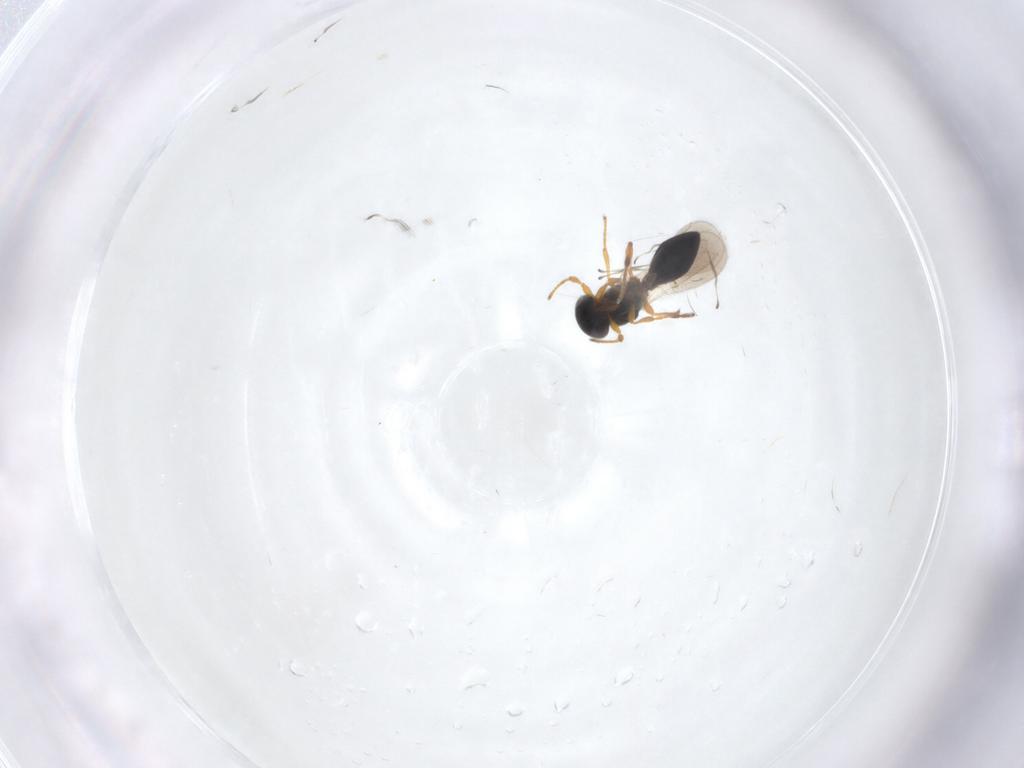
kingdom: Animalia
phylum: Arthropoda
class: Insecta
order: Hymenoptera
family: Platygastridae
